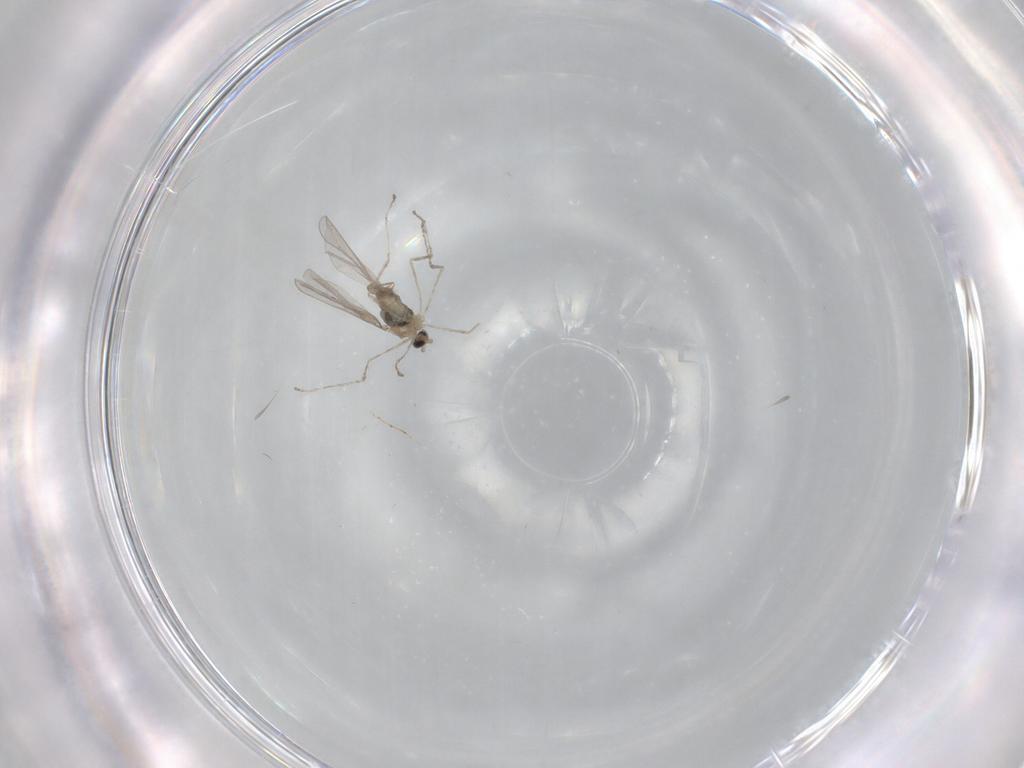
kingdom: Animalia
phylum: Arthropoda
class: Insecta
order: Diptera
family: Cecidomyiidae
